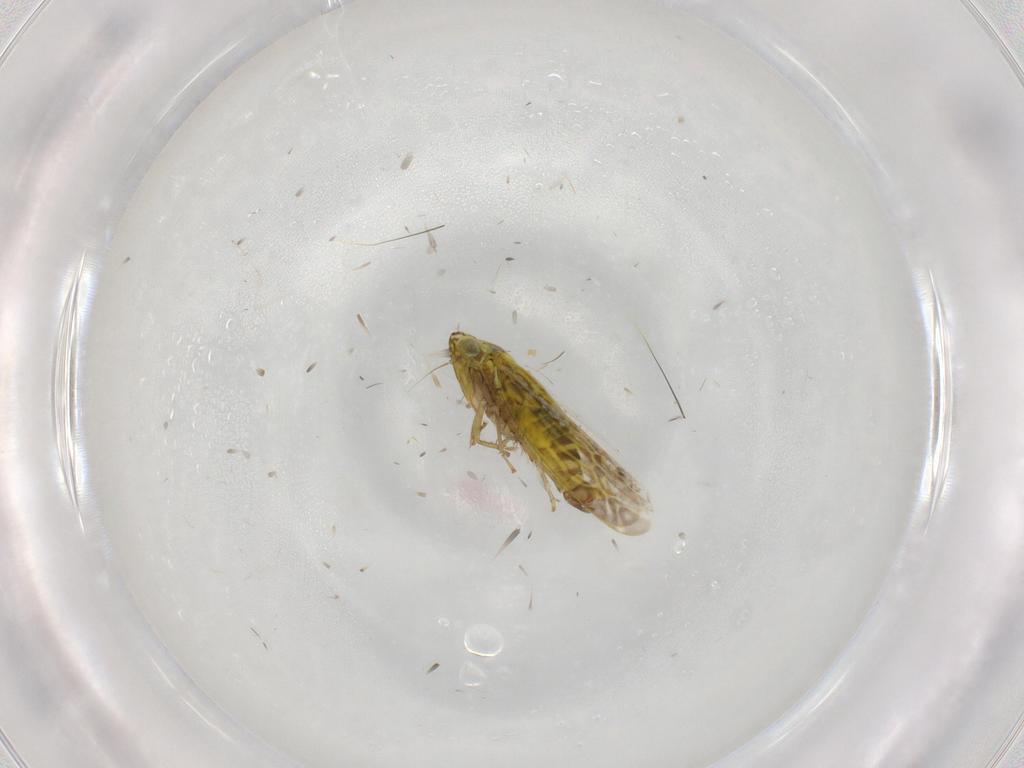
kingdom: Animalia
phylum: Arthropoda
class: Insecta
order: Hemiptera
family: Cicadellidae
